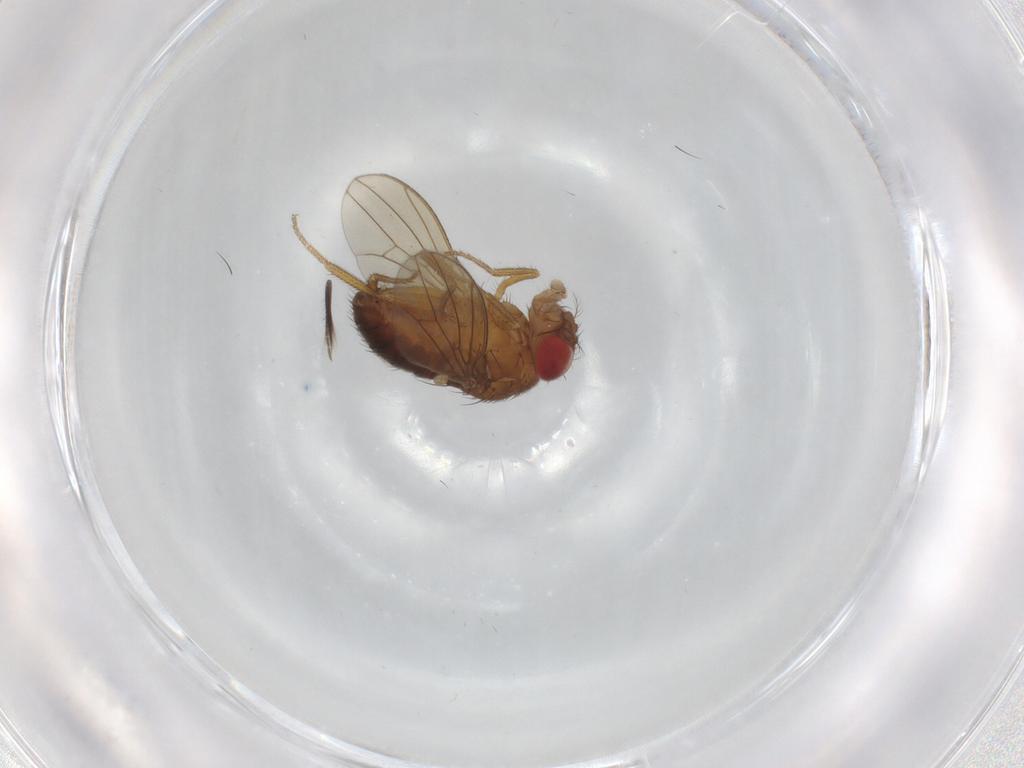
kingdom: Animalia
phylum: Arthropoda
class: Insecta
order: Diptera
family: Drosophilidae
